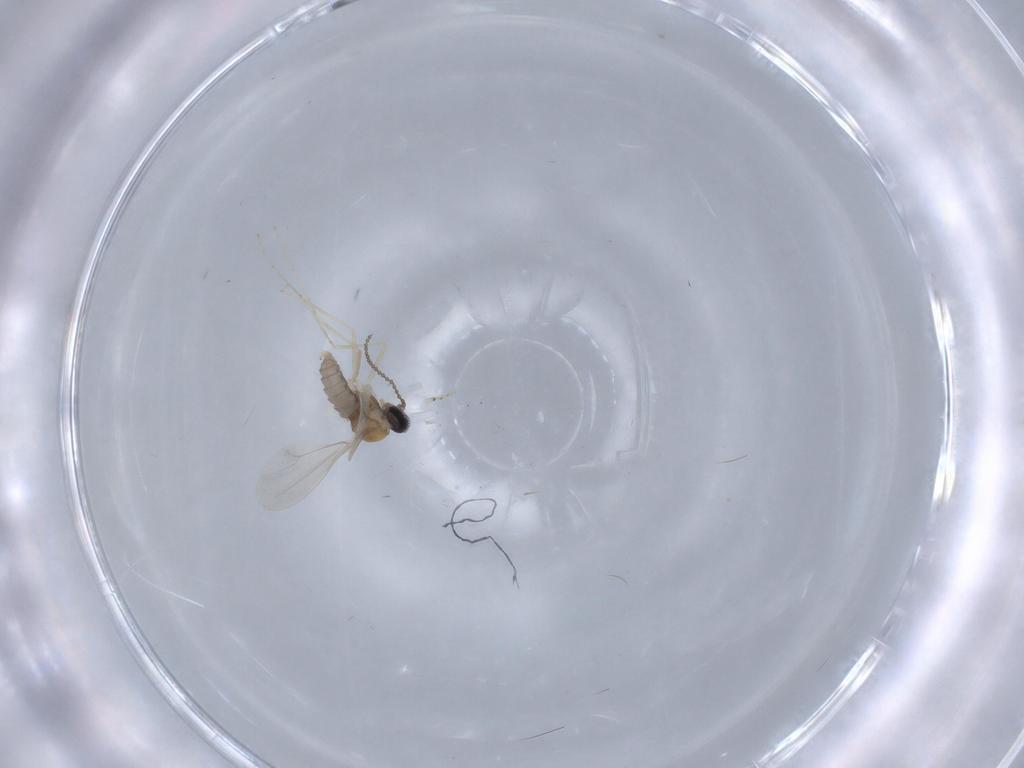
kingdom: Animalia
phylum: Arthropoda
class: Insecta
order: Diptera
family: Cecidomyiidae
